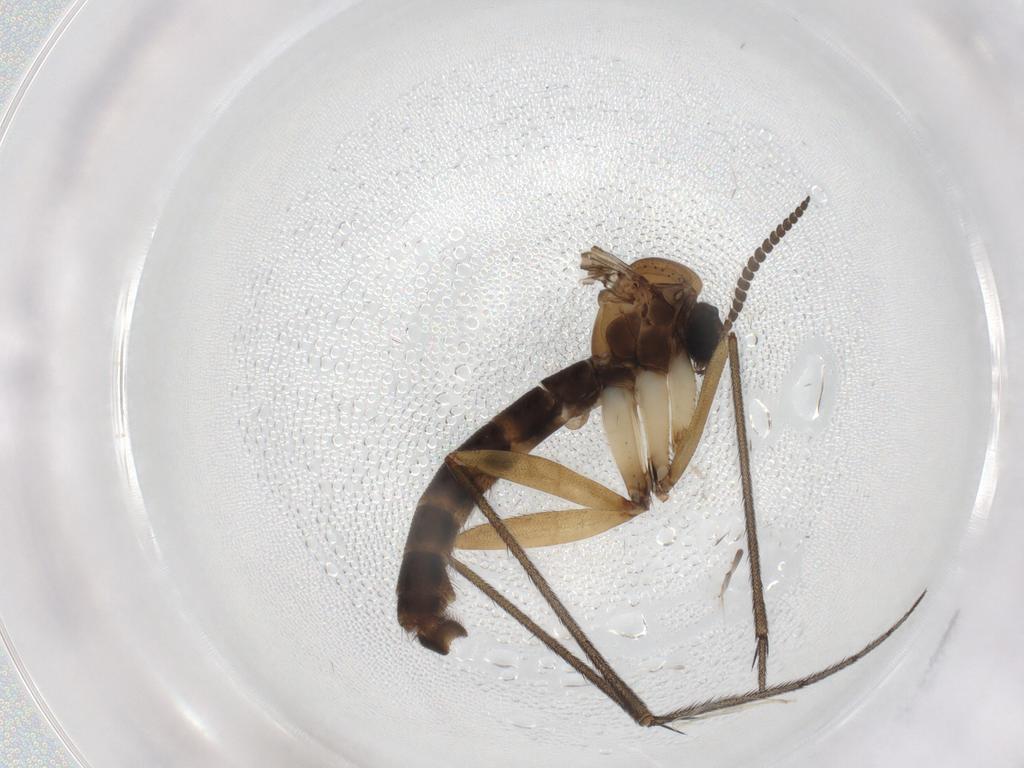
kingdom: Animalia
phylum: Arthropoda
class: Insecta
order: Diptera
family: Ditomyiidae
